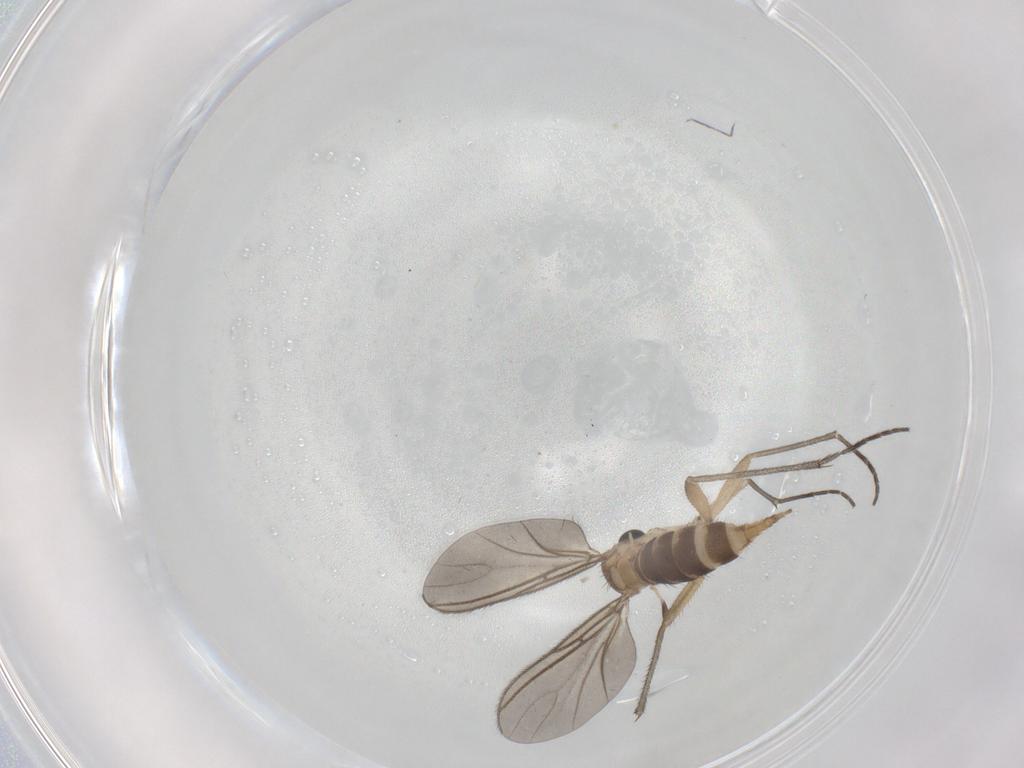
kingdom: Animalia
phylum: Arthropoda
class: Insecta
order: Diptera
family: Sciaridae
